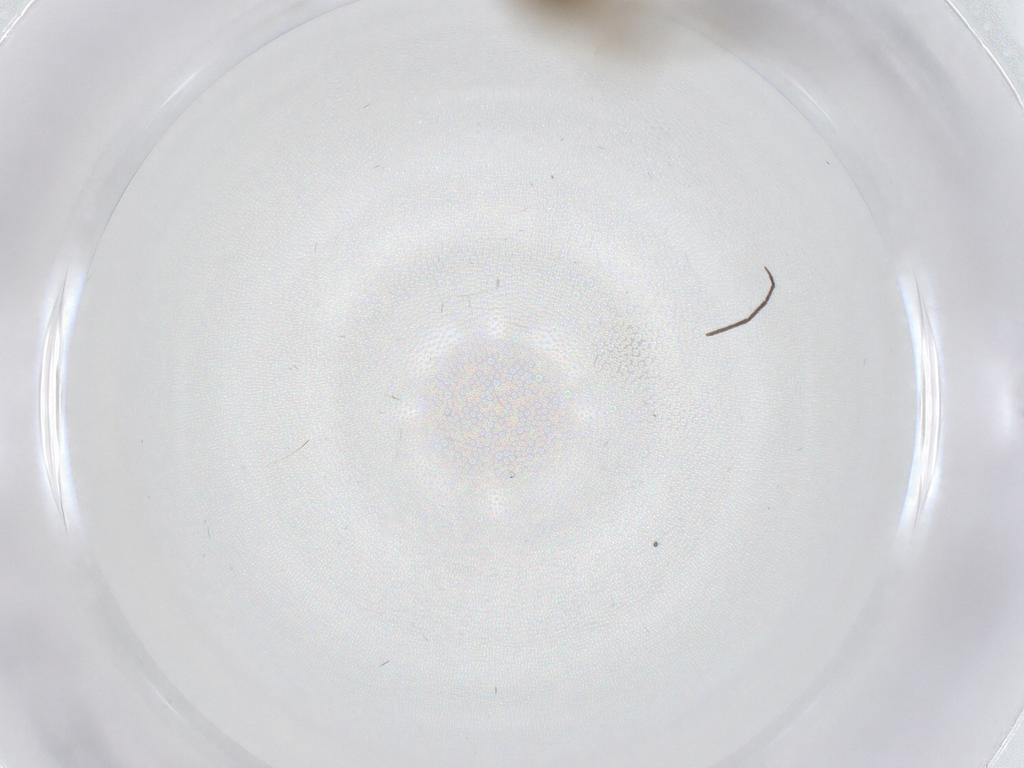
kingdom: Animalia
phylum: Arthropoda
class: Insecta
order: Diptera
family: Chironomidae
